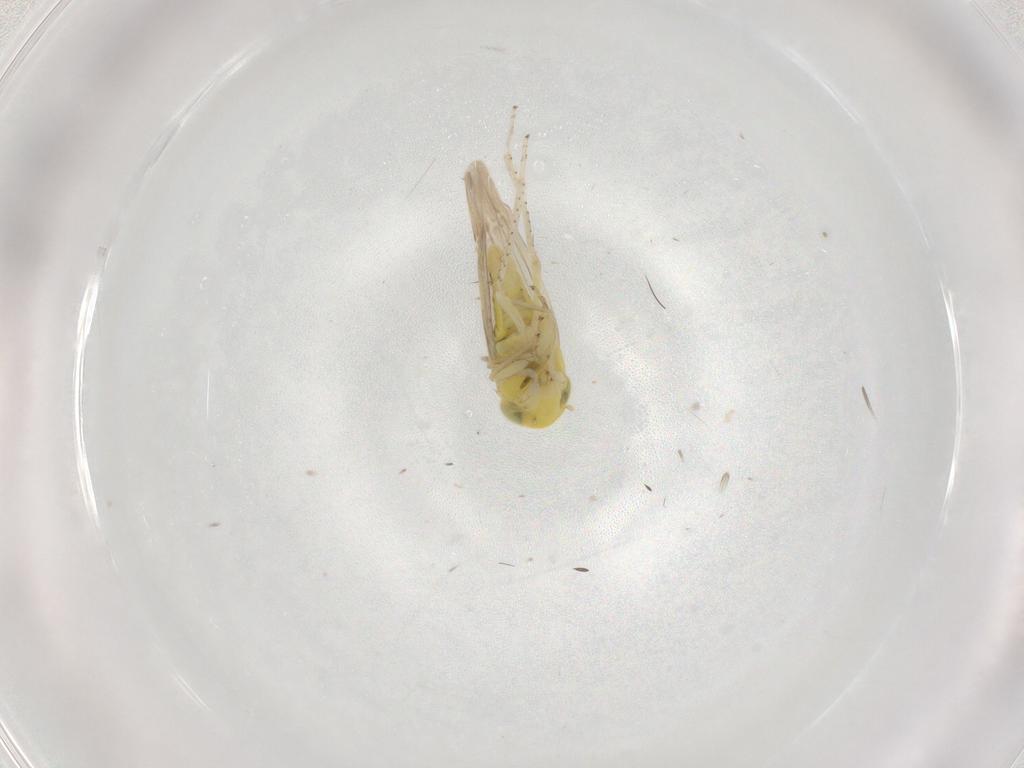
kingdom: Animalia
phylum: Arthropoda
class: Insecta
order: Hemiptera
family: Cicadellidae
